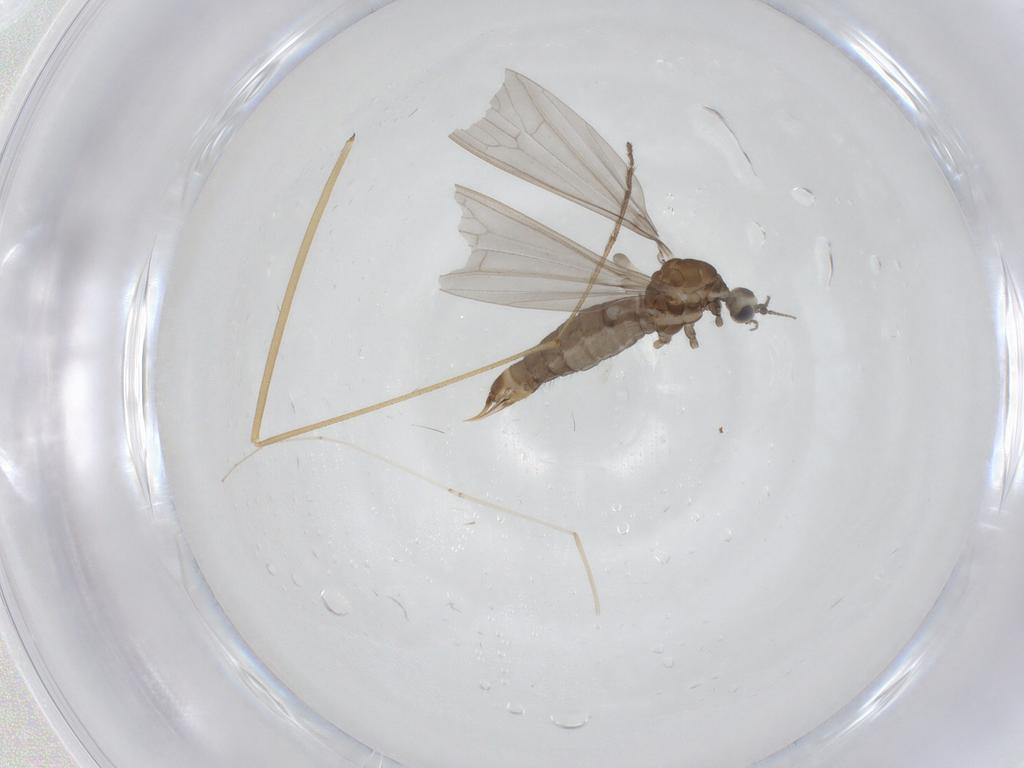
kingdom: Animalia
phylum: Arthropoda
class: Insecta
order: Diptera
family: Limoniidae
